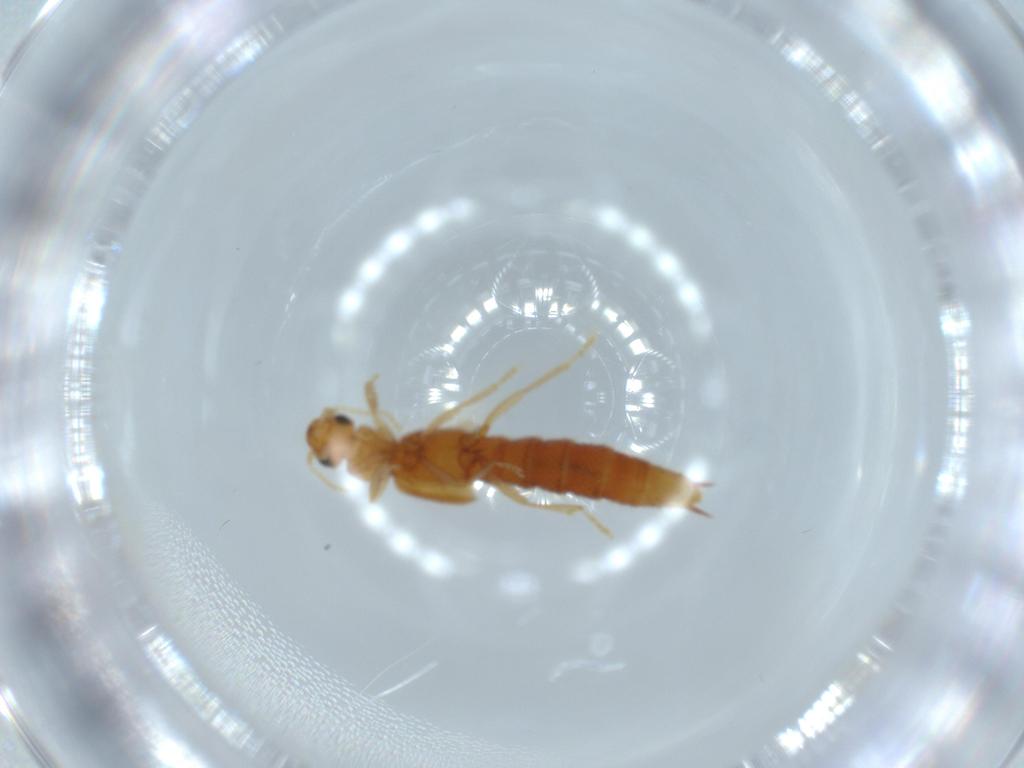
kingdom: Animalia
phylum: Arthropoda
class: Insecta
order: Coleoptera
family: Staphylinidae
